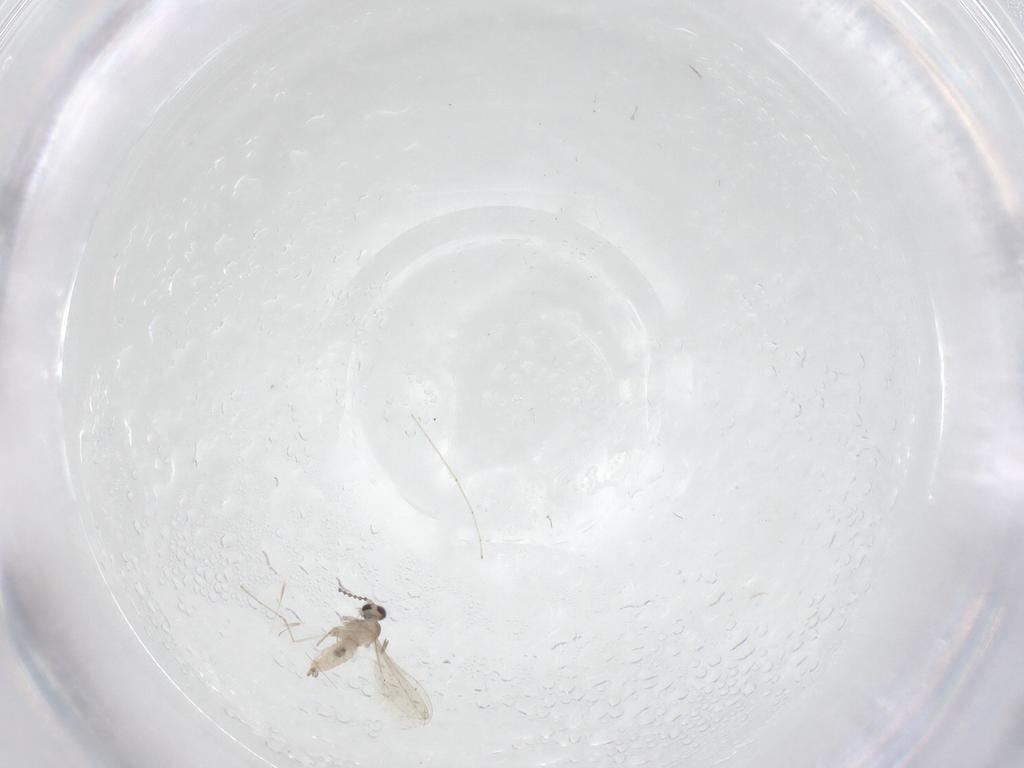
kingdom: Animalia
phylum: Arthropoda
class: Insecta
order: Diptera
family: Cecidomyiidae
